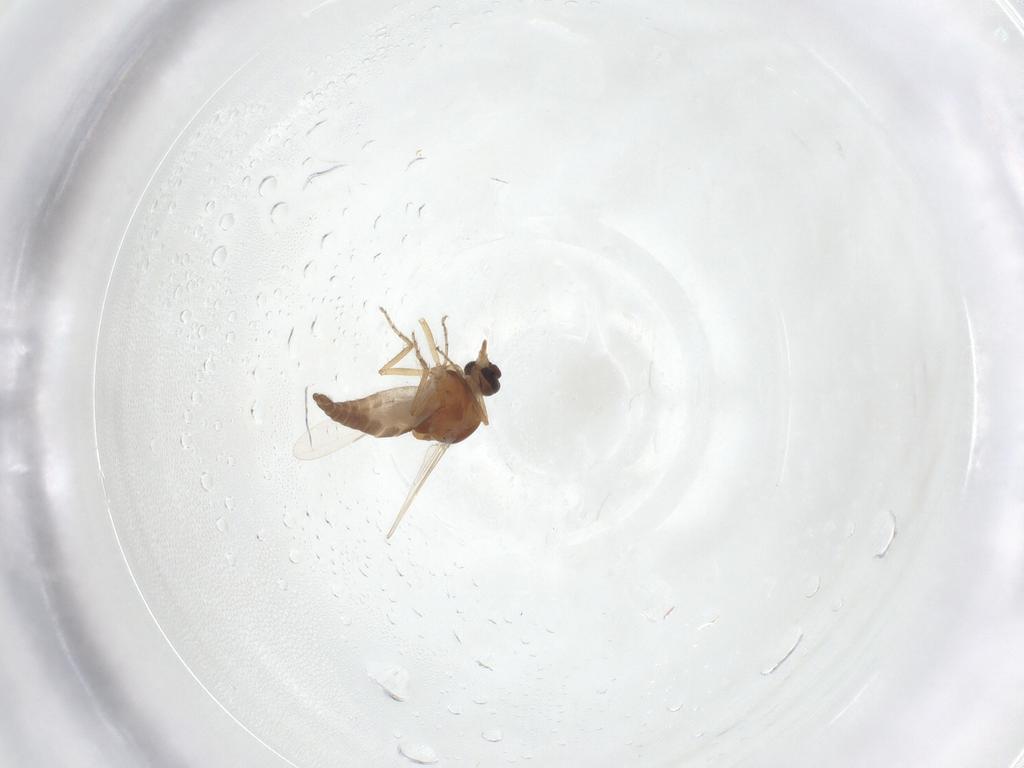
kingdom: Animalia
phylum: Arthropoda
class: Insecta
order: Diptera
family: Ceratopogonidae
